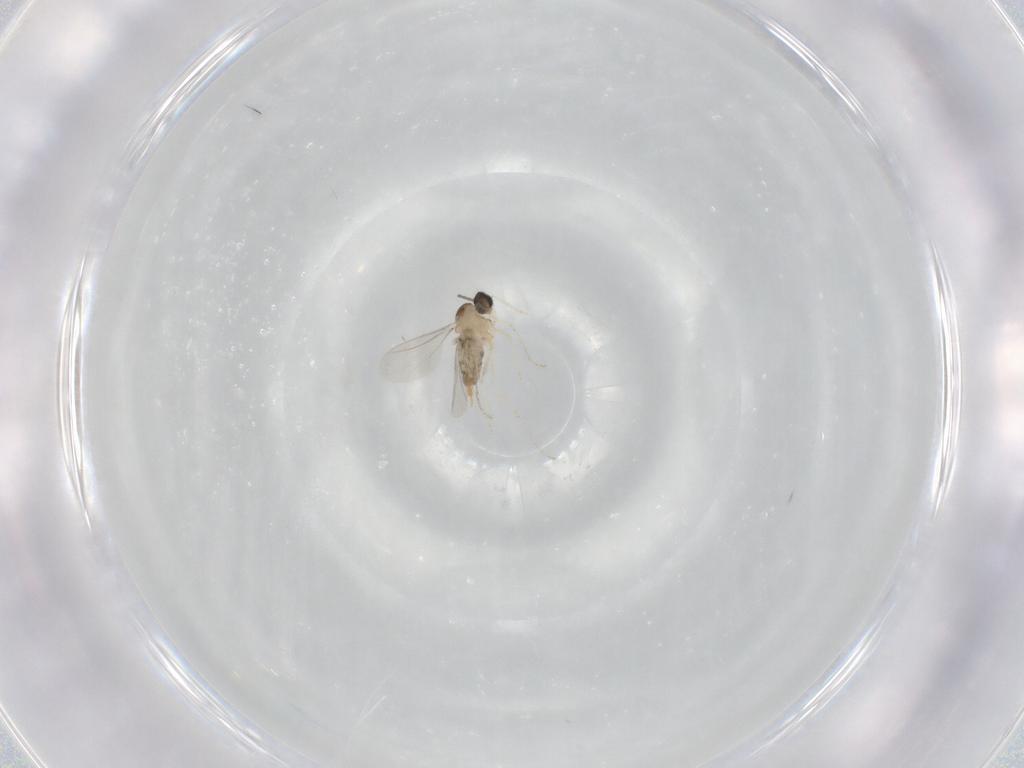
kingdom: Animalia
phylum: Arthropoda
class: Insecta
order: Diptera
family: Cecidomyiidae
